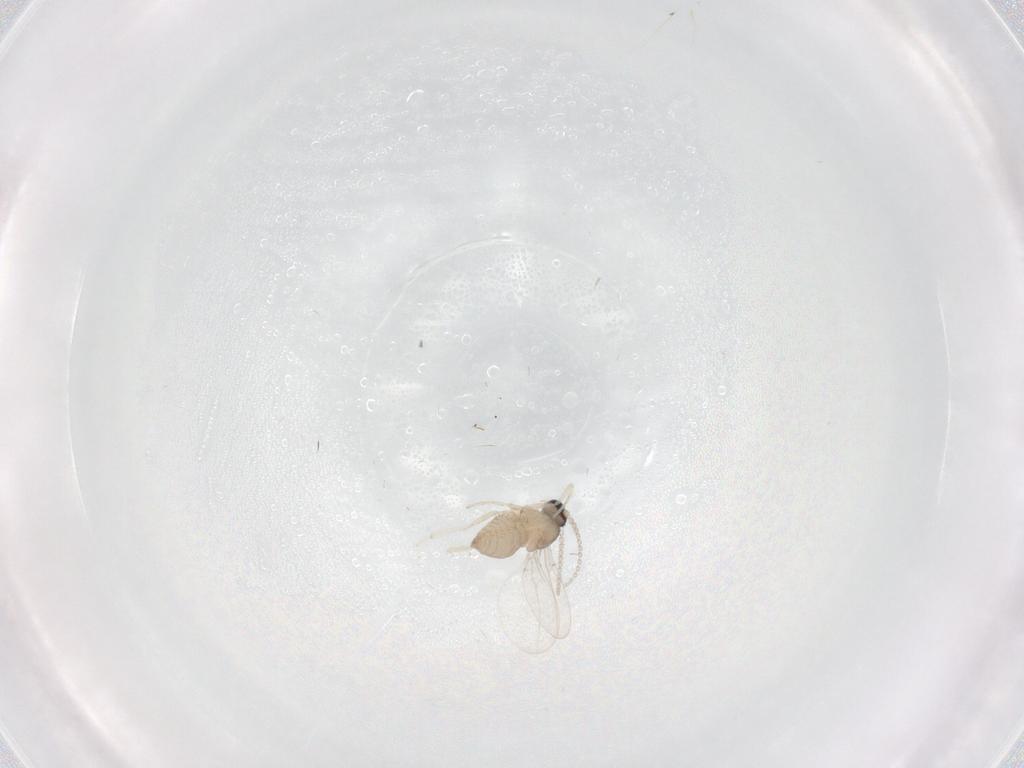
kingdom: Animalia
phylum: Arthropoda
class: Insecta
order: Diptera
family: Cecidomyiidae
